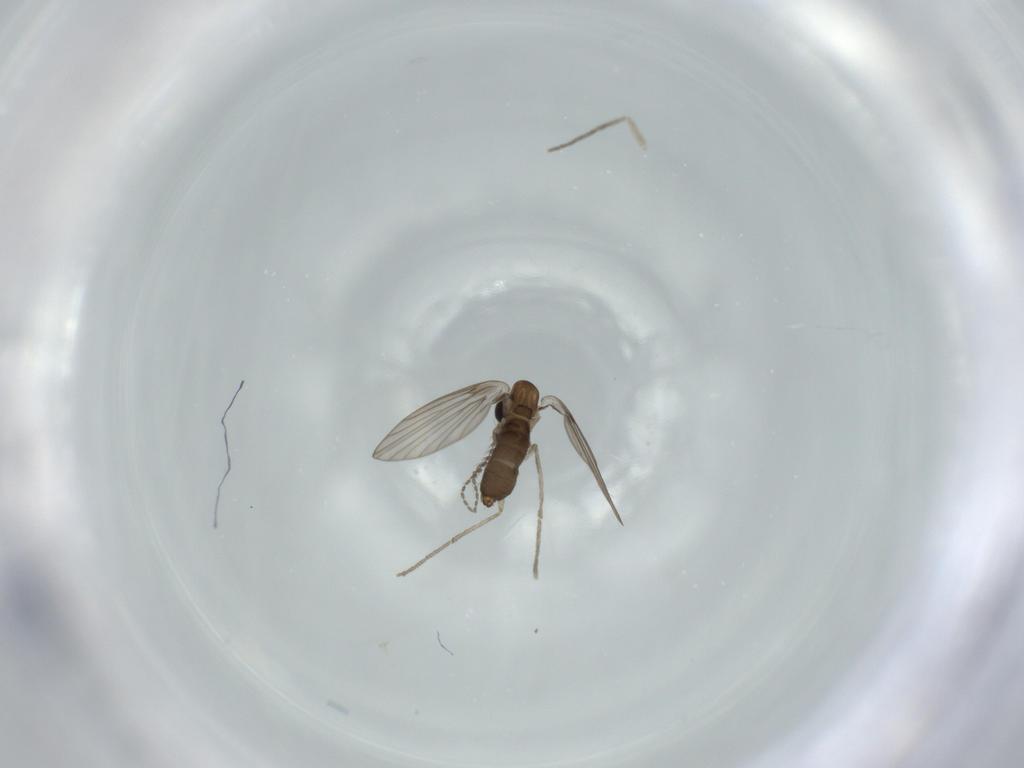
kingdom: Animalia
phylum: Arthropoda
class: Insecta
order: Diptera
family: Psychodidae
